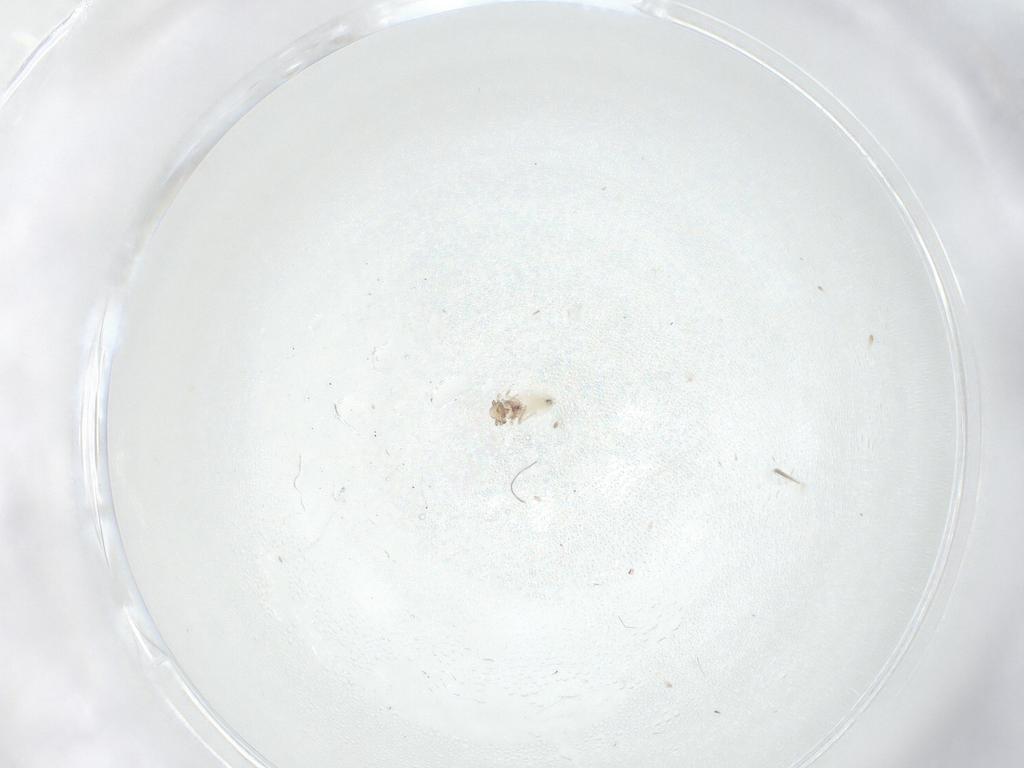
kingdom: Animalia
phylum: Arthropoda
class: Insecta
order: Psocodea
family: Lepidopsocidae
